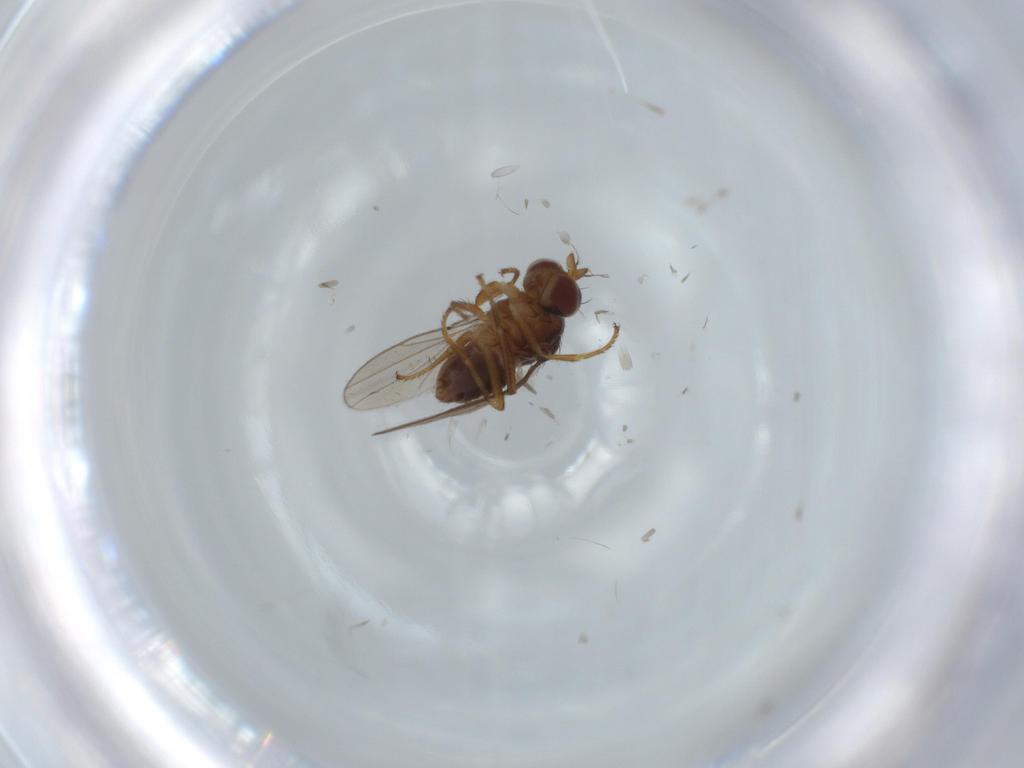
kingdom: Animalia
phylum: Arthropoda
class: Insecta
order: Diptera
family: Ephydridae
